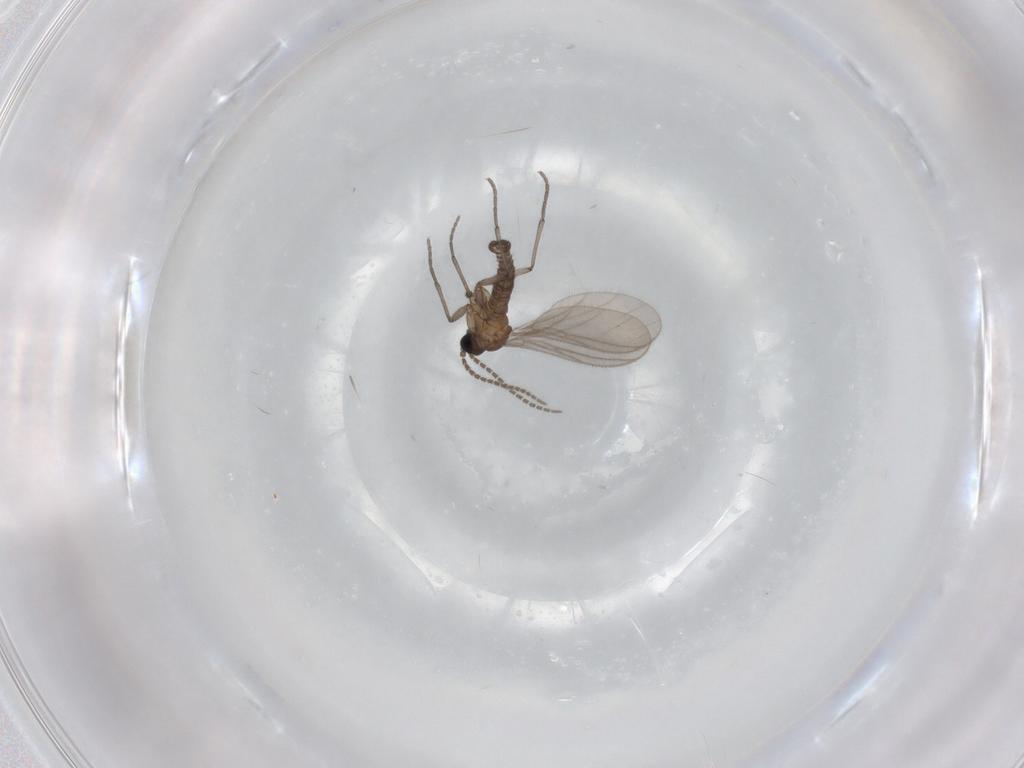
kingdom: Animalia
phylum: Arthropoda
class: Insecta
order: Diptera
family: Sciaridae
